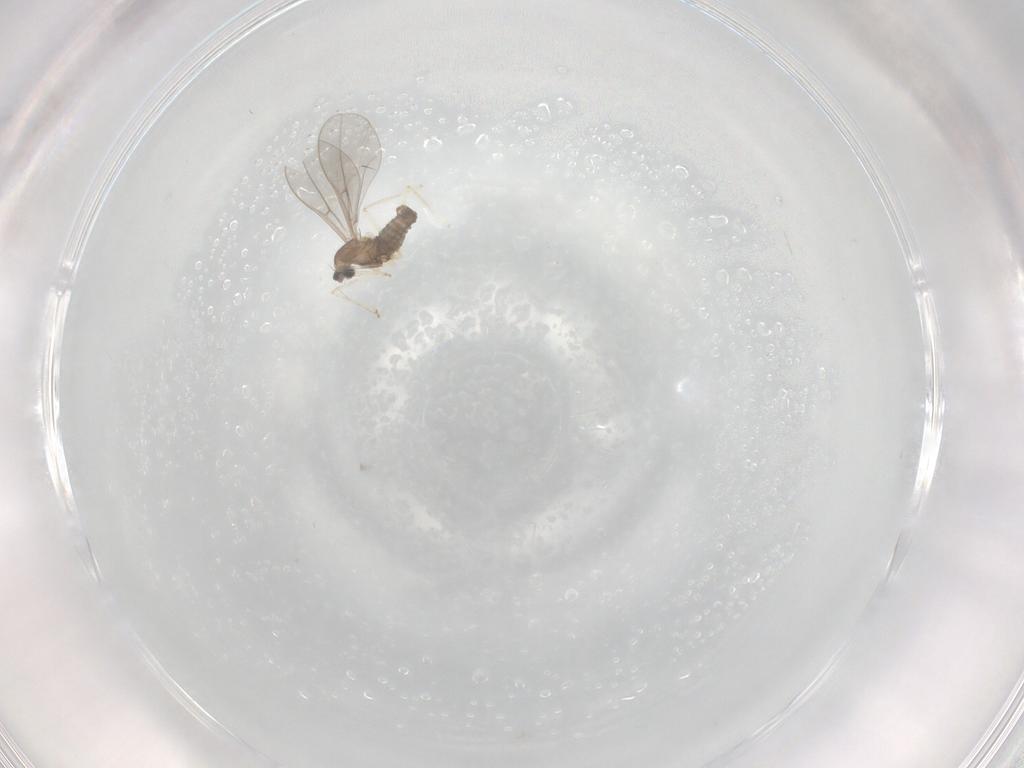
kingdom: Animalia
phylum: Arthropoda
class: Insecta
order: Diptera
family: Cecidomyiidae
